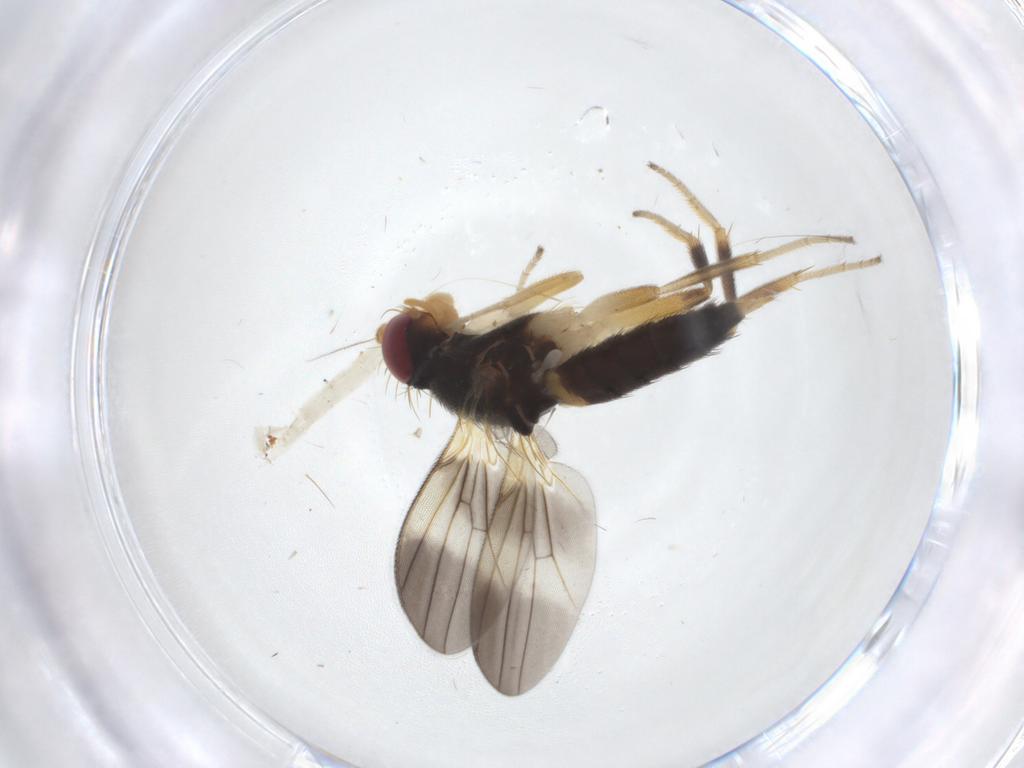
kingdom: Animalia
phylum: Arthropoda
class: Insecta
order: Diptera
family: Clusiidae
